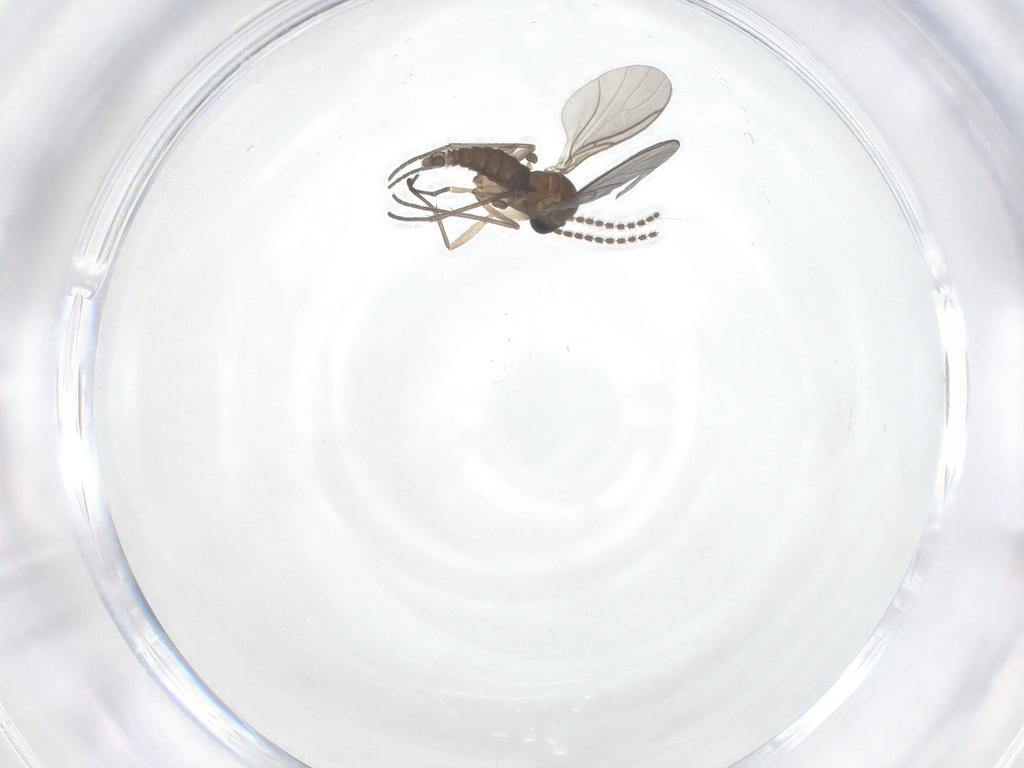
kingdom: Animalia
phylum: Arthropoda
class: Insecta
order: Diptera
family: Sciaridae
